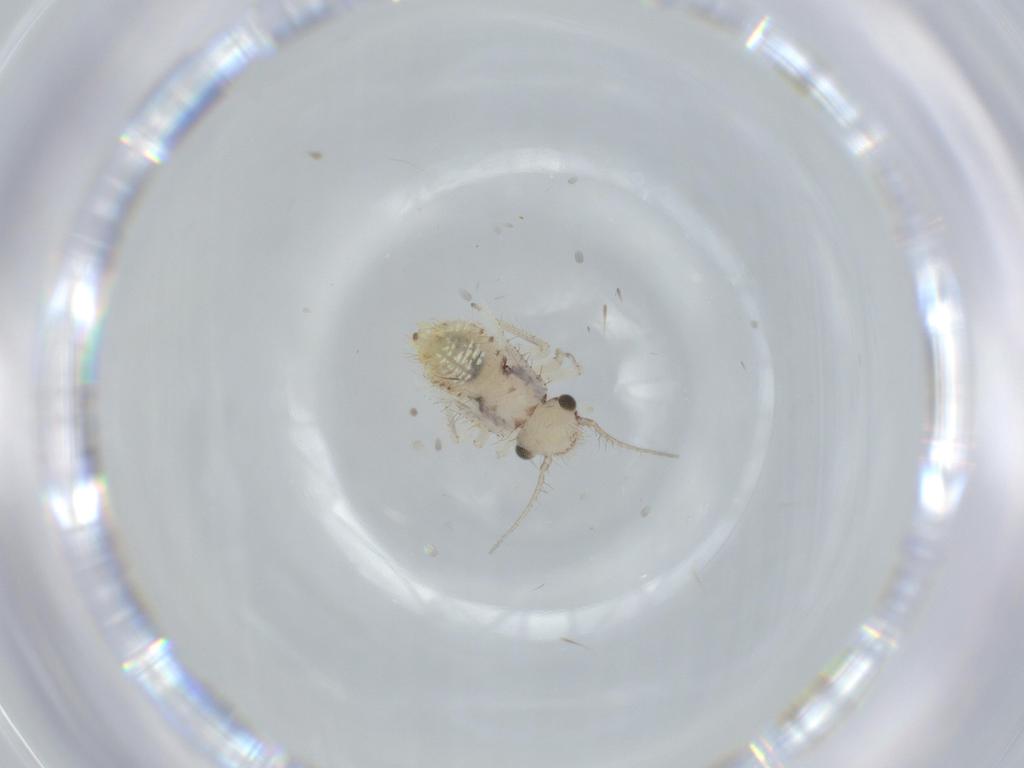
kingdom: Animalia
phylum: Arthropoda
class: Insecta
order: Psocodea
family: Pseudocaeciliidae
